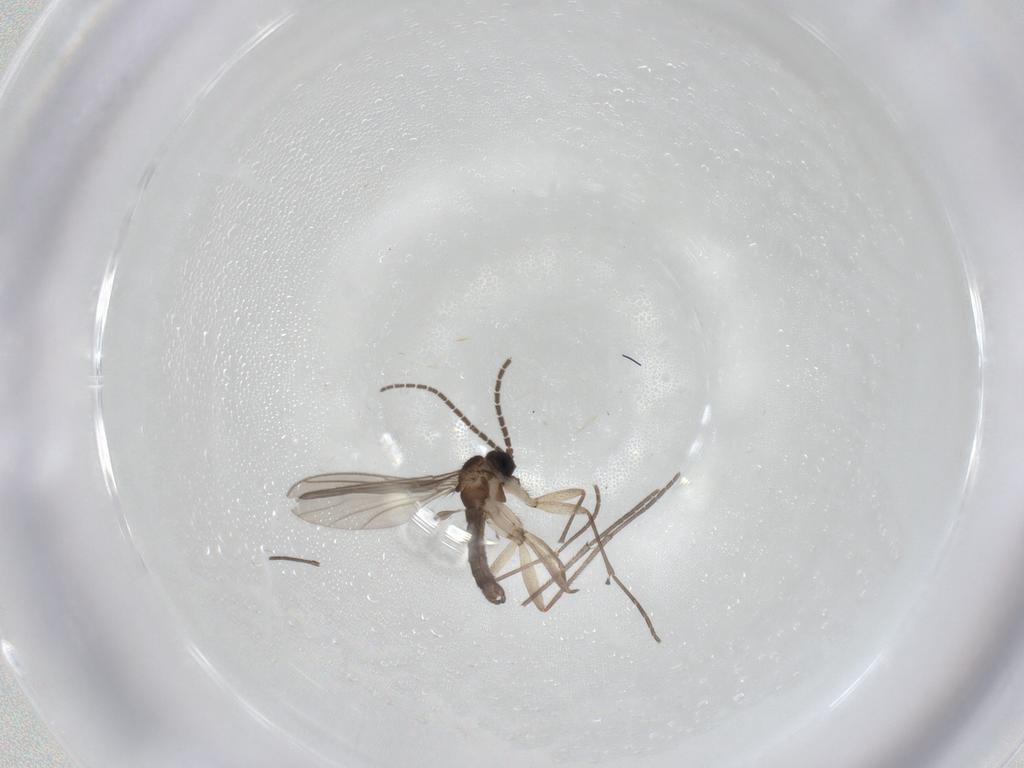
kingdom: Animalia
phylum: Arthropoda
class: Insecta
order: Diptera
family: Sciaridae
